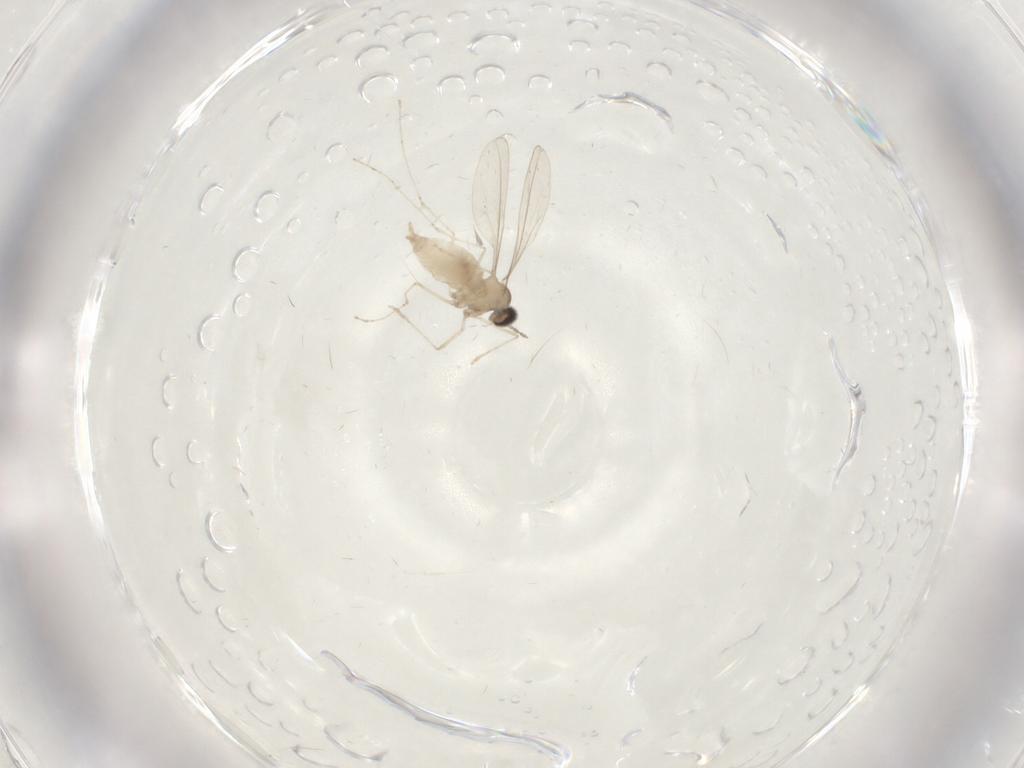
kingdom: Animalia
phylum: Arthropoda
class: Insecta
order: Diptera
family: Cecidomyiidae
